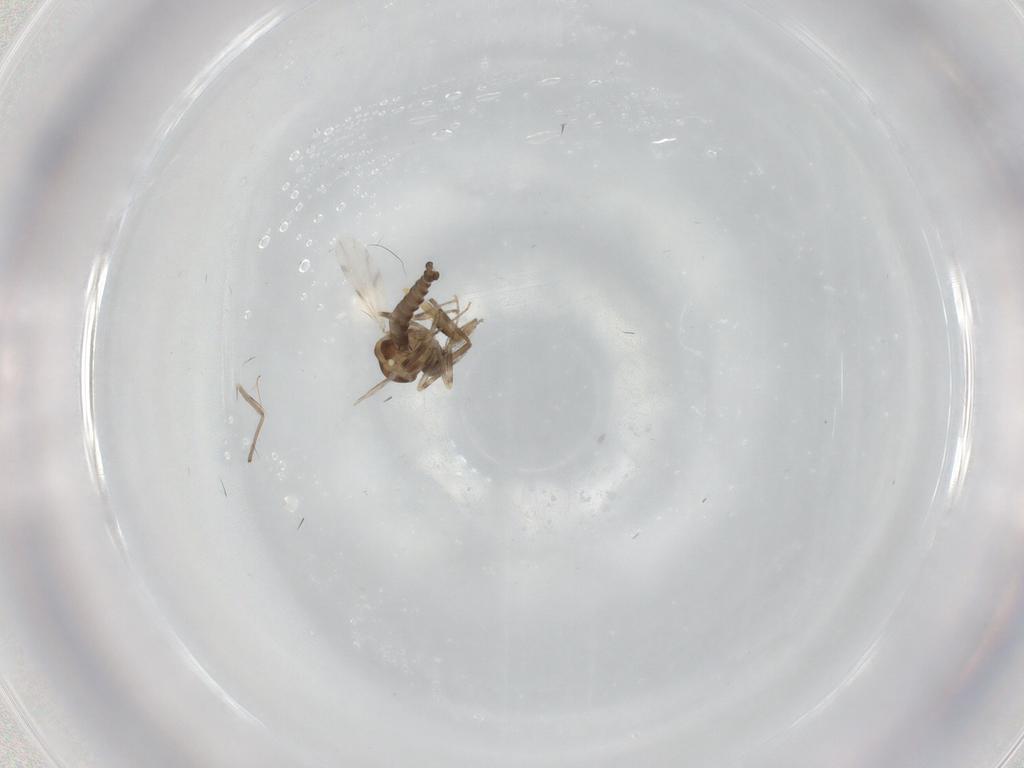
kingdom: Animalia
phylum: Arthropoda
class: Insecta
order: Diptera
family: Ceratopogonidae
